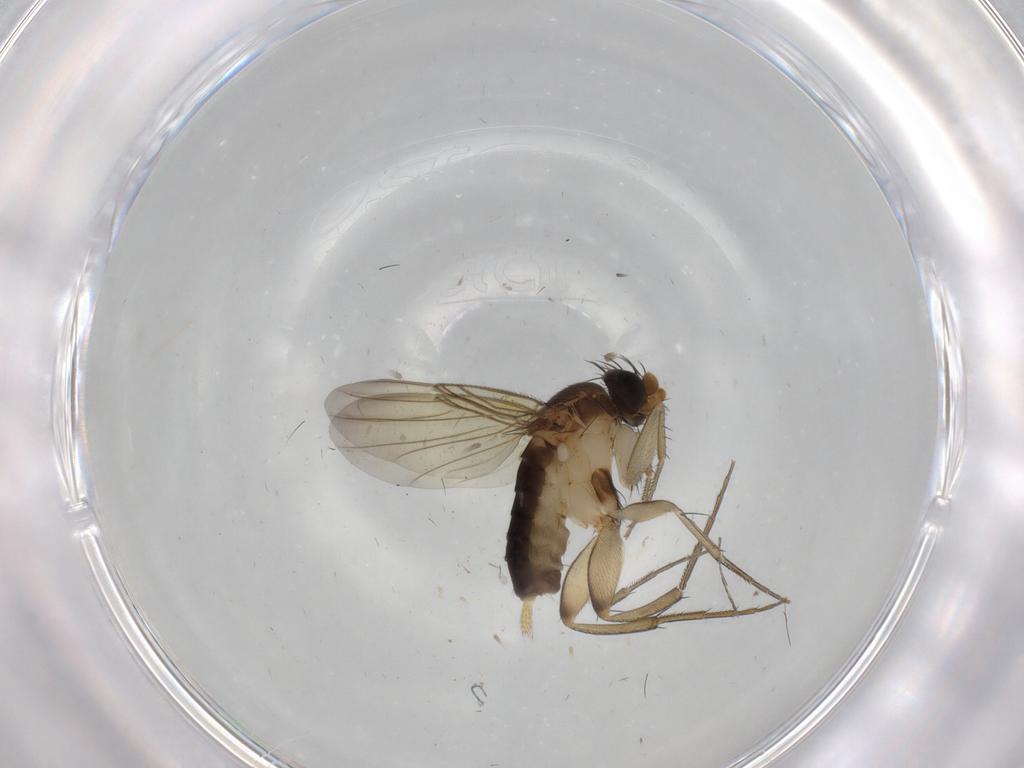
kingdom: Animalia
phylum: Arthropoda
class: Insecta
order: Diptera
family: Phoridae
